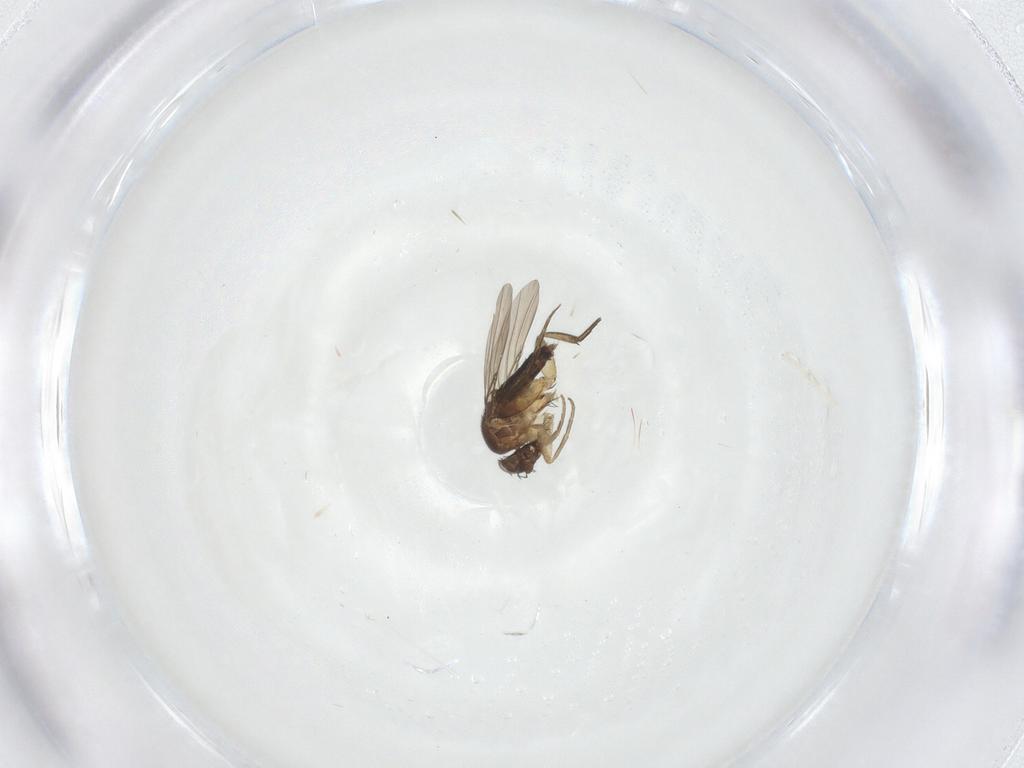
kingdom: Animalia
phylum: Arthropoda
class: Insecta
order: Diptera
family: Phoridae
